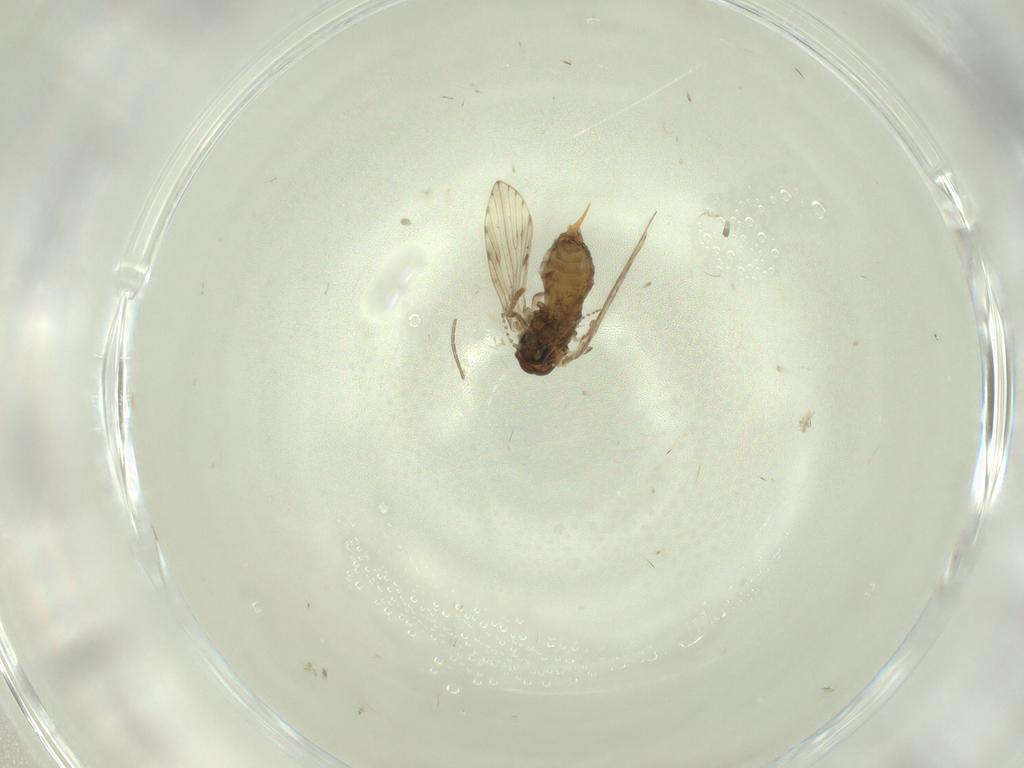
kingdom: Animalia
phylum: Arthropoda
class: Insecta
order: Diptera
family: Psychodidae
